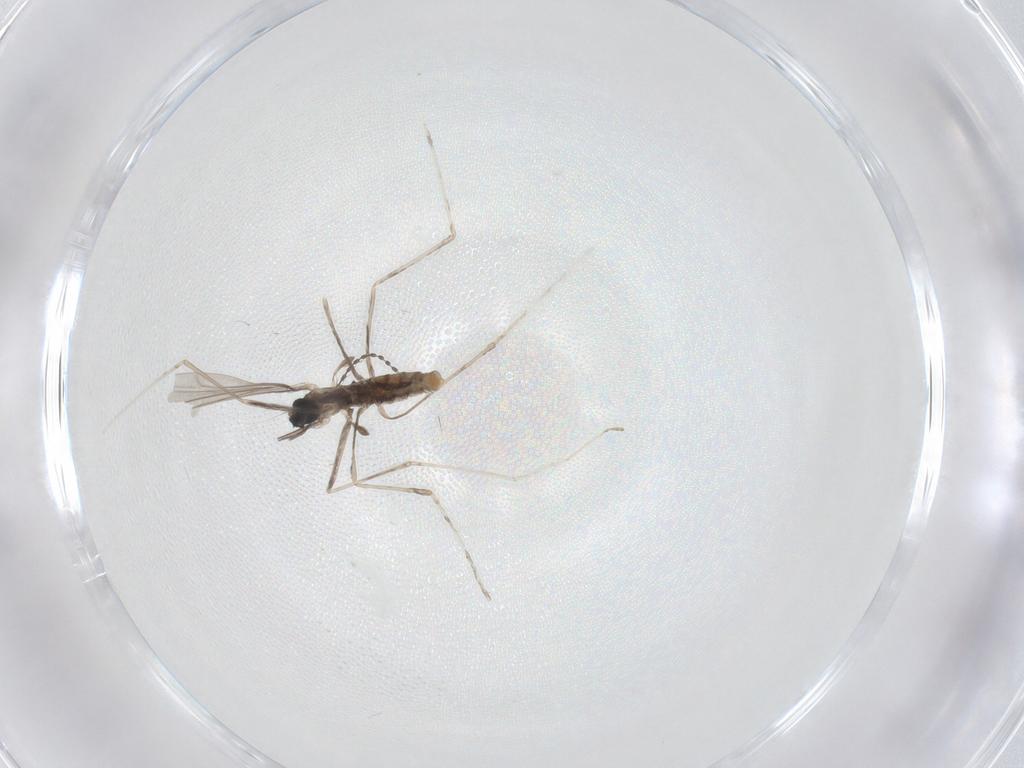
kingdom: Animalia
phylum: Arthropoda
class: Insecta
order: Diptera
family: Cecidomyiidae
